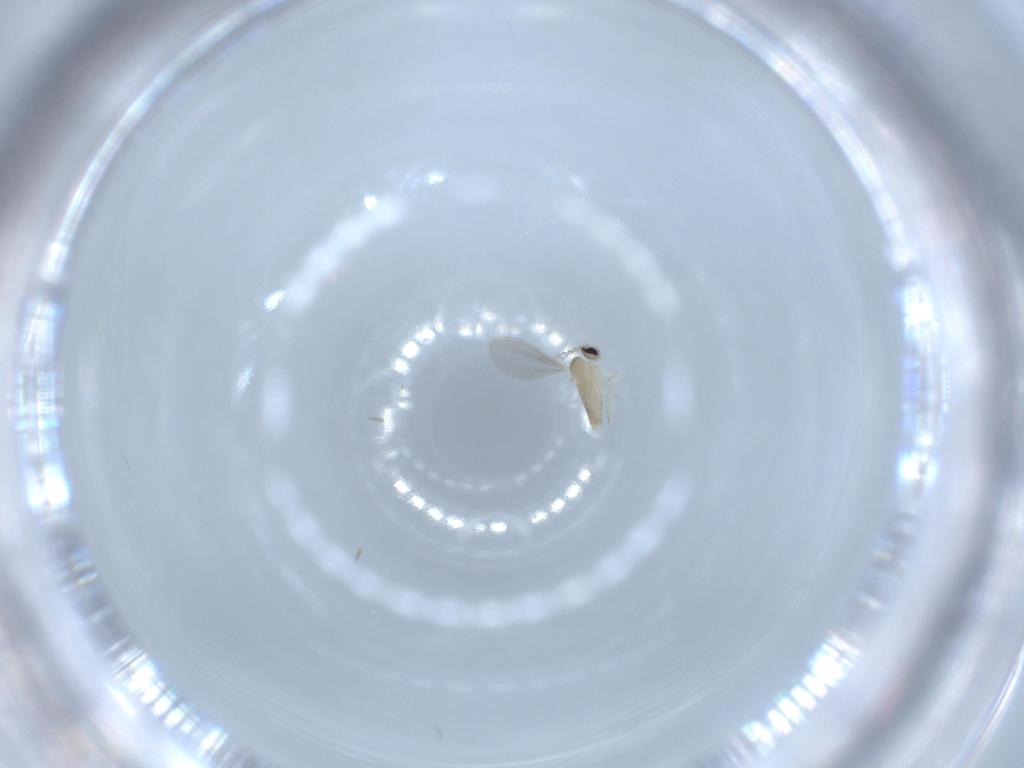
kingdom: Animalia
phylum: Arthropoda
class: Insecta
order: Diptera
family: Cecidomyiidae
